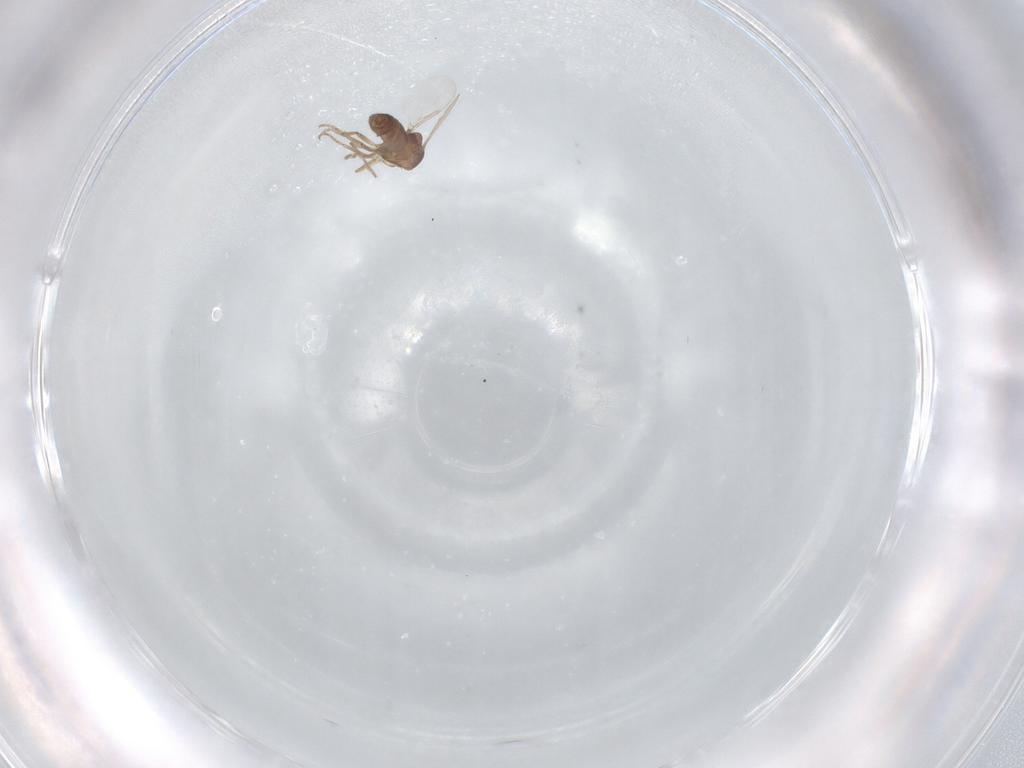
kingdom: Animalia
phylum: Arthropoda
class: Insecta
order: Diptera
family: Ceratopogonidae
